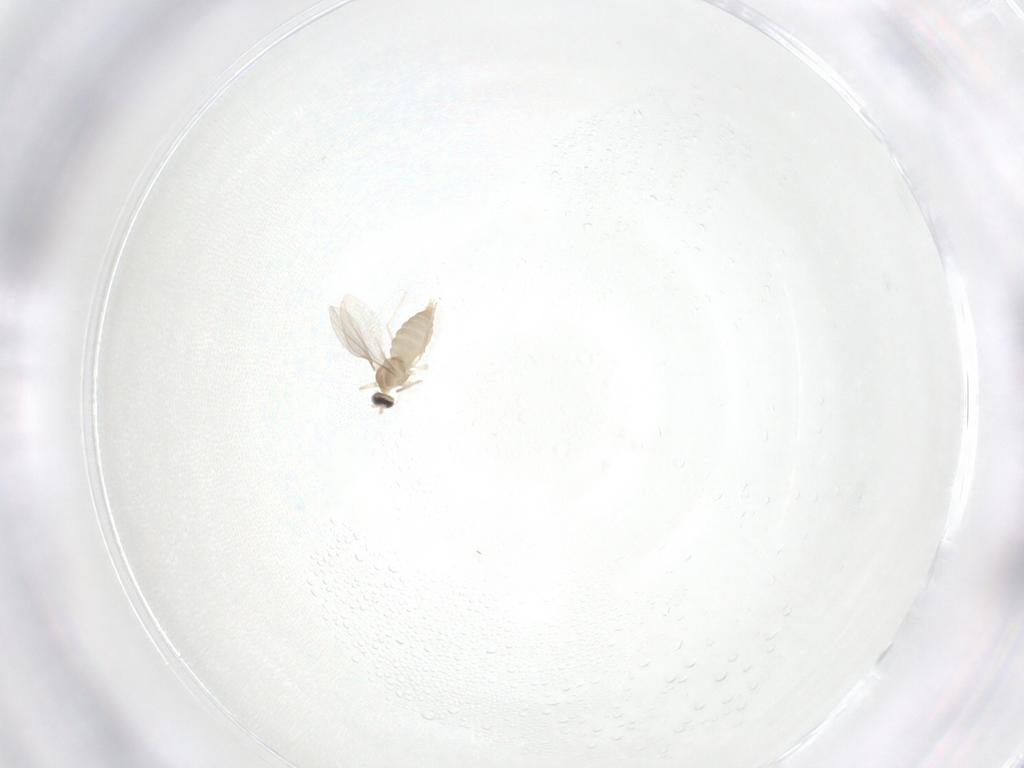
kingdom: Animalia
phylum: Arthropoda
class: Insecta
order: Diptera
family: Cecidomyiidae
